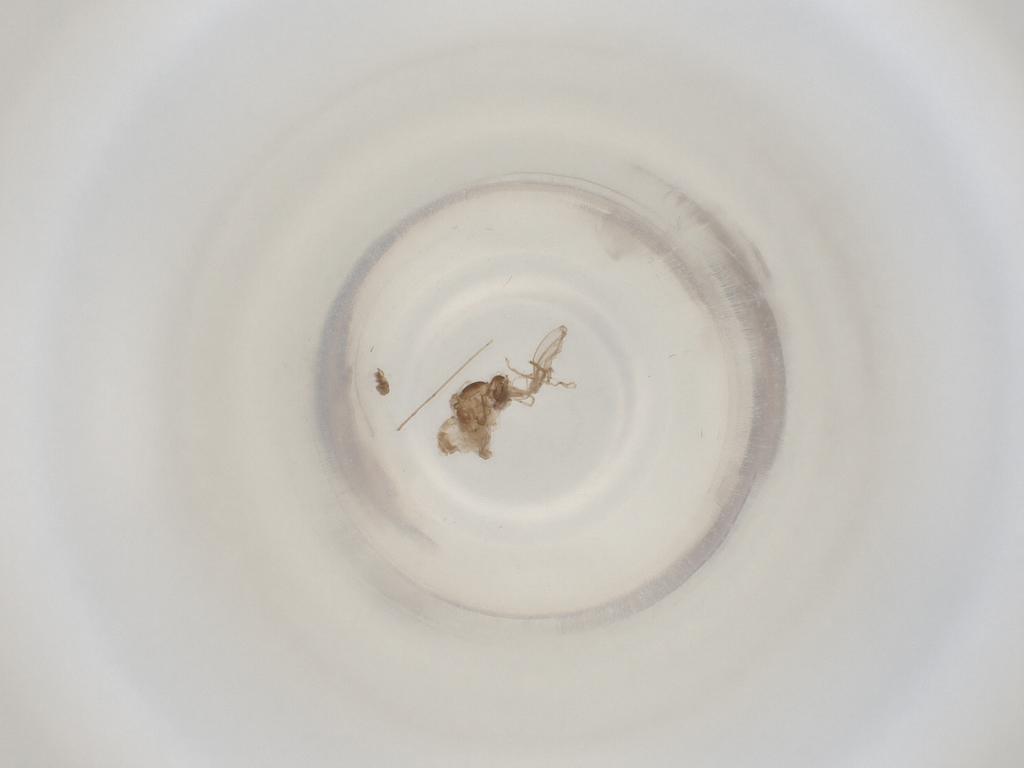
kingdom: Animalia
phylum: Arthropoda
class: Insecta
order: Diptera
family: Cecidomyiidae
